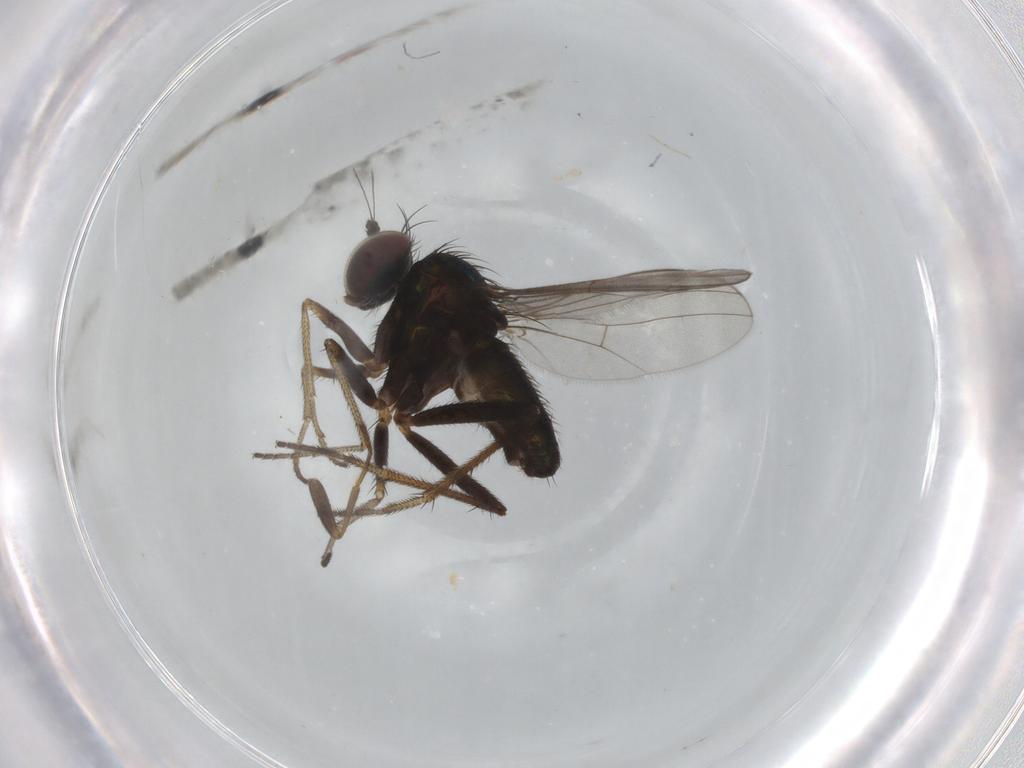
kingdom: Animalia
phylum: Arthropoda
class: Insecta
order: Diptera
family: Sphaeroceridae
